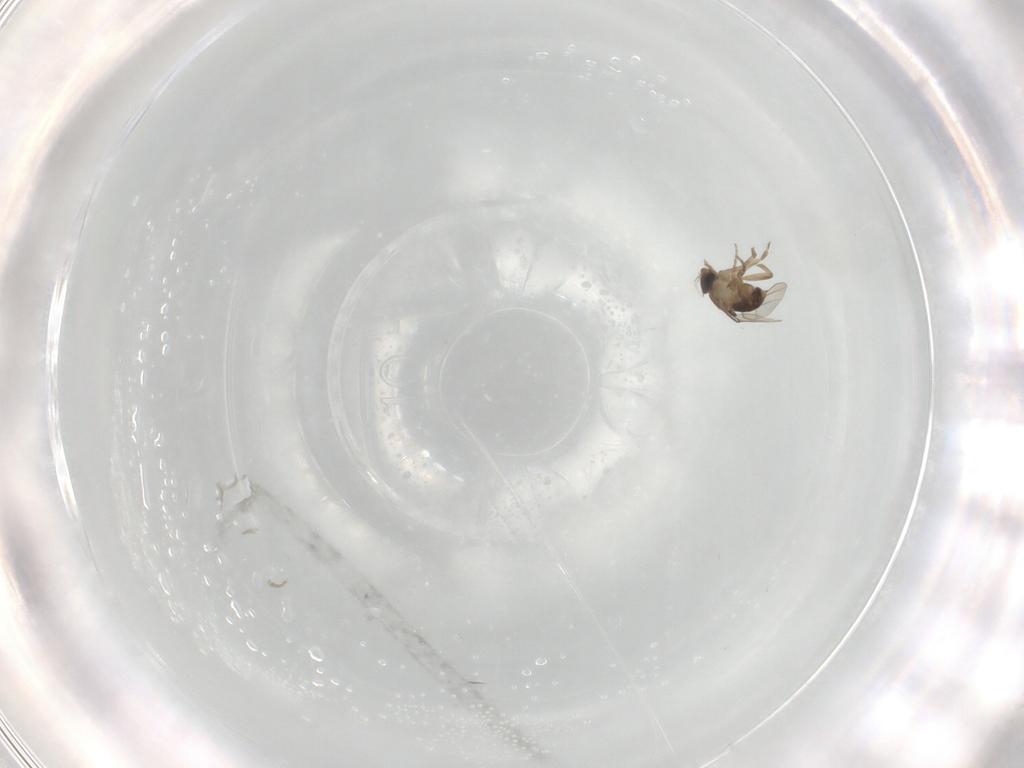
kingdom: Animalia
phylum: Arthropoda
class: Insecta
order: Diptera
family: Phoridae
